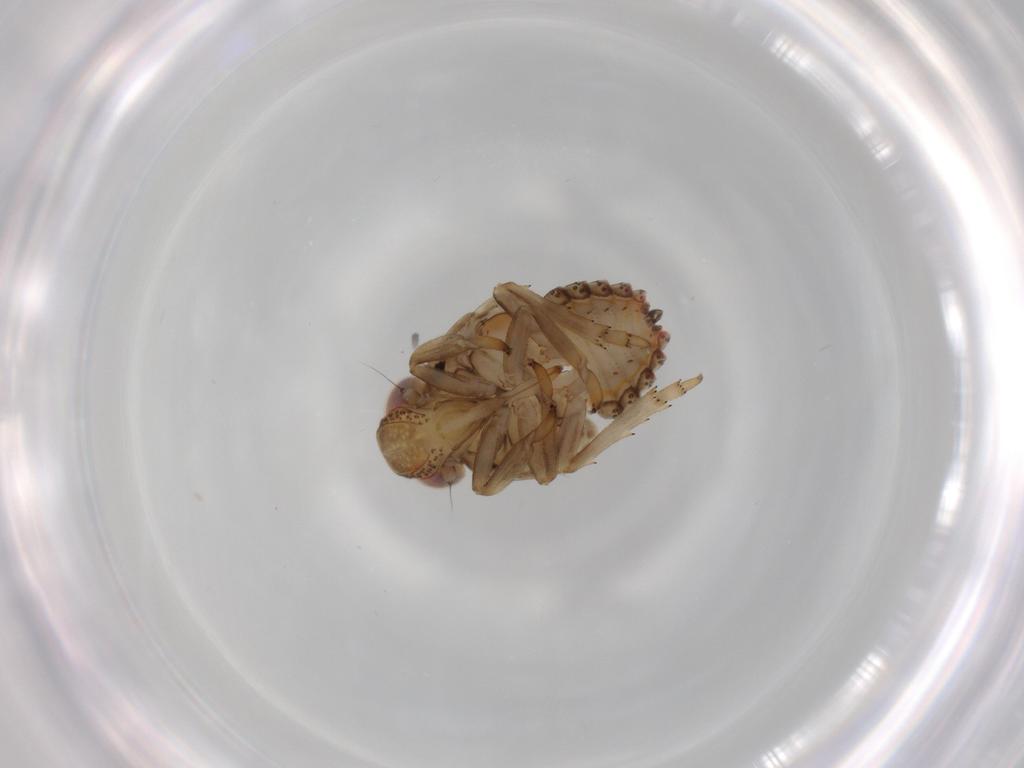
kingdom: Animalia
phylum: Arthropoda
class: Insecta
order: Hemiptera
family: Issidae
